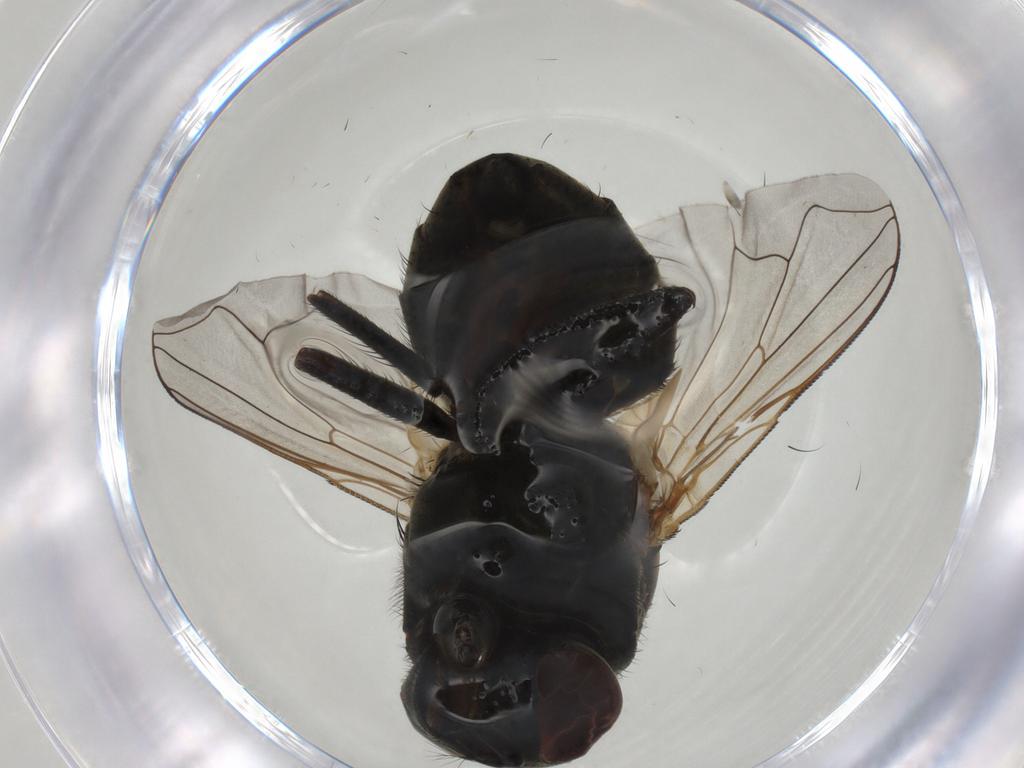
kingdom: Animalia
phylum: Arthropoda
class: Insecta
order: Diptera
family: Muscidae
